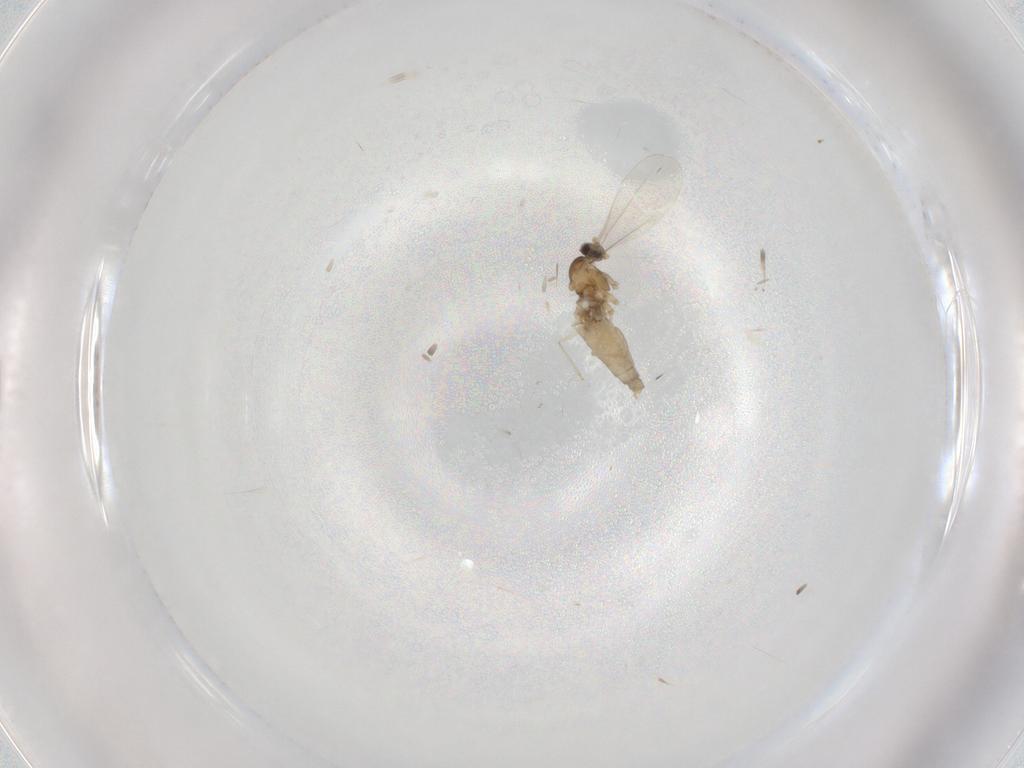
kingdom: Animalia
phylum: Arthropoda
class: Insecta
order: Diptera
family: Cecidomyiidae
